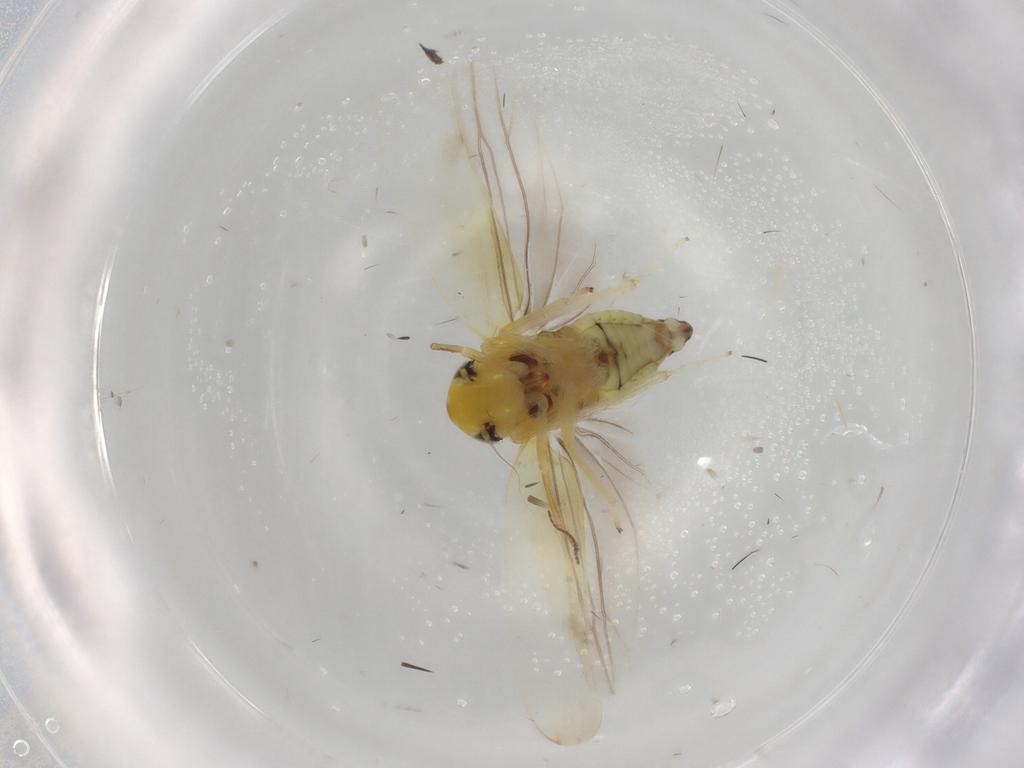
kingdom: Animalia
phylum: Arthropoda
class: Insecta
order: Hemiptera
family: Cicadellidae
